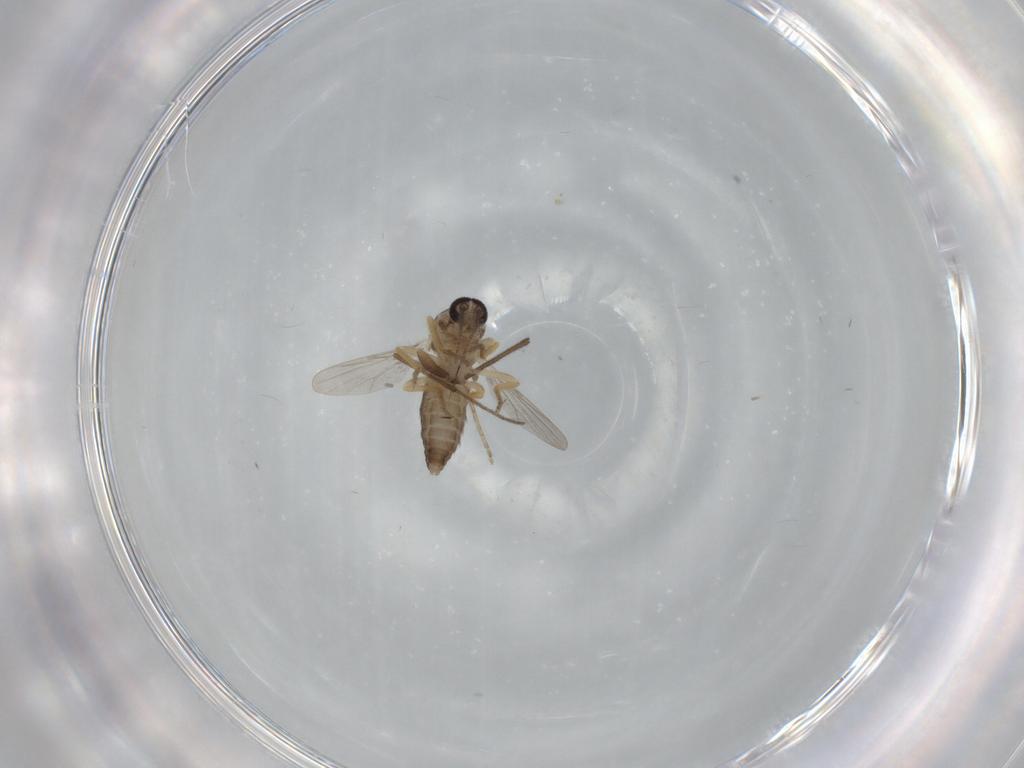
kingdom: Animalia
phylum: Arthropoda
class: Insecta
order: Diptera
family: Ceratopogonidae
